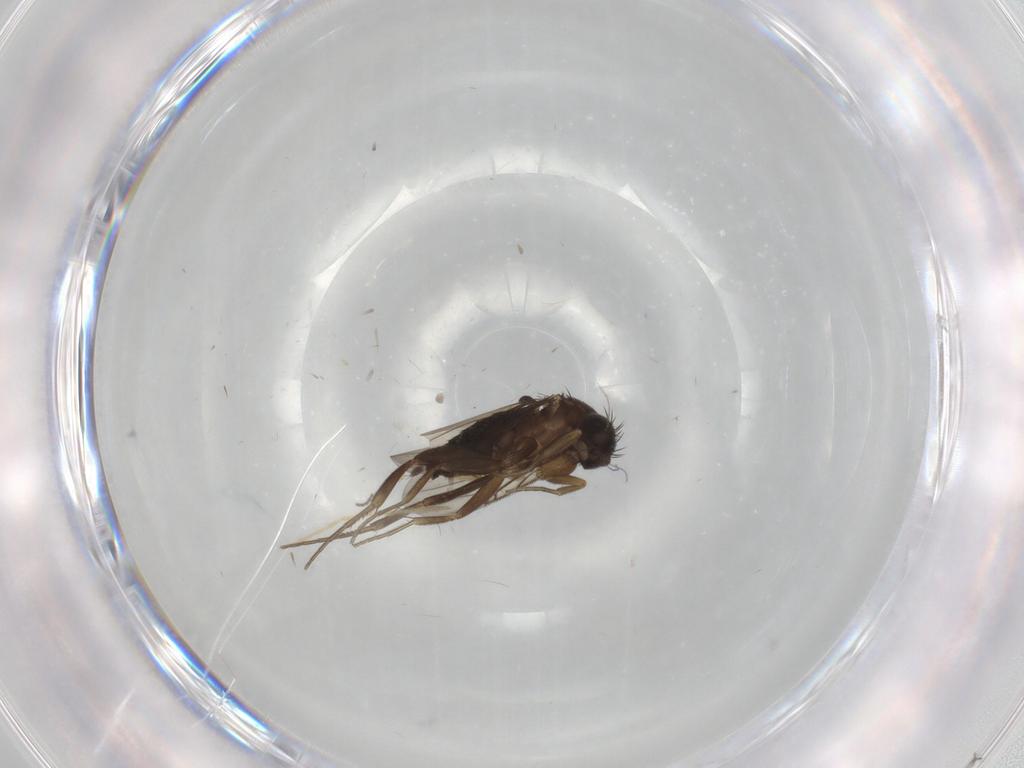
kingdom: Animalia
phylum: Arthropoda
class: Insecta
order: Diptera
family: Phoridae
